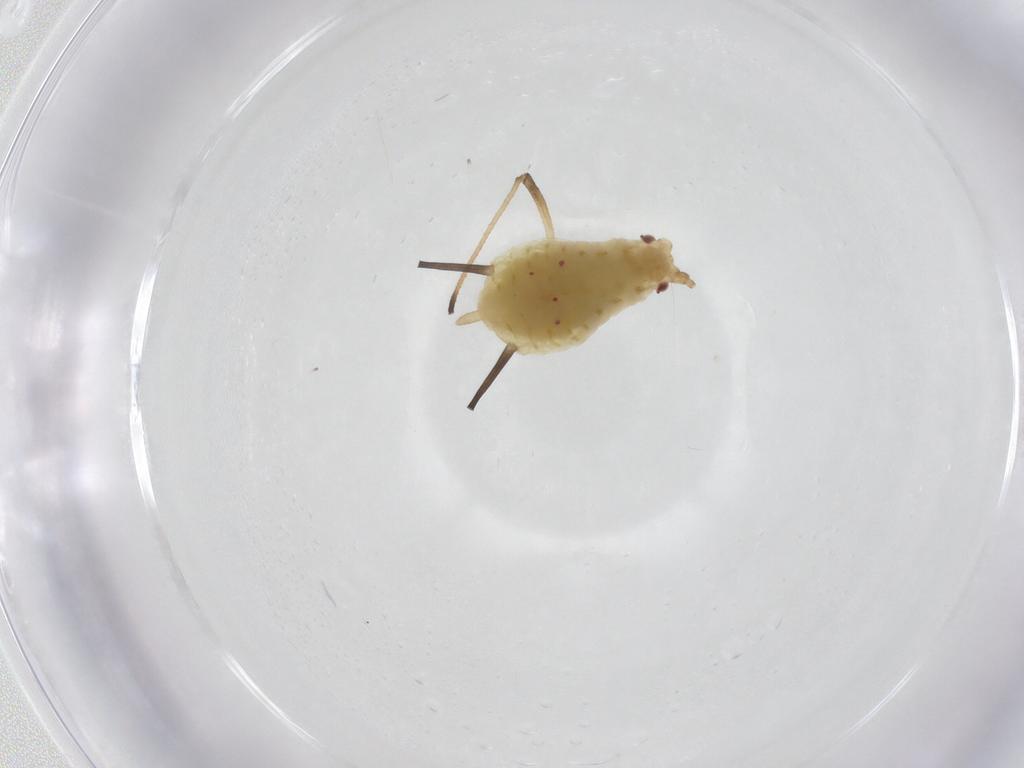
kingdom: Animalia
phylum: Arthropoda
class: Insecta
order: Hemiptera
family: Aphididae
